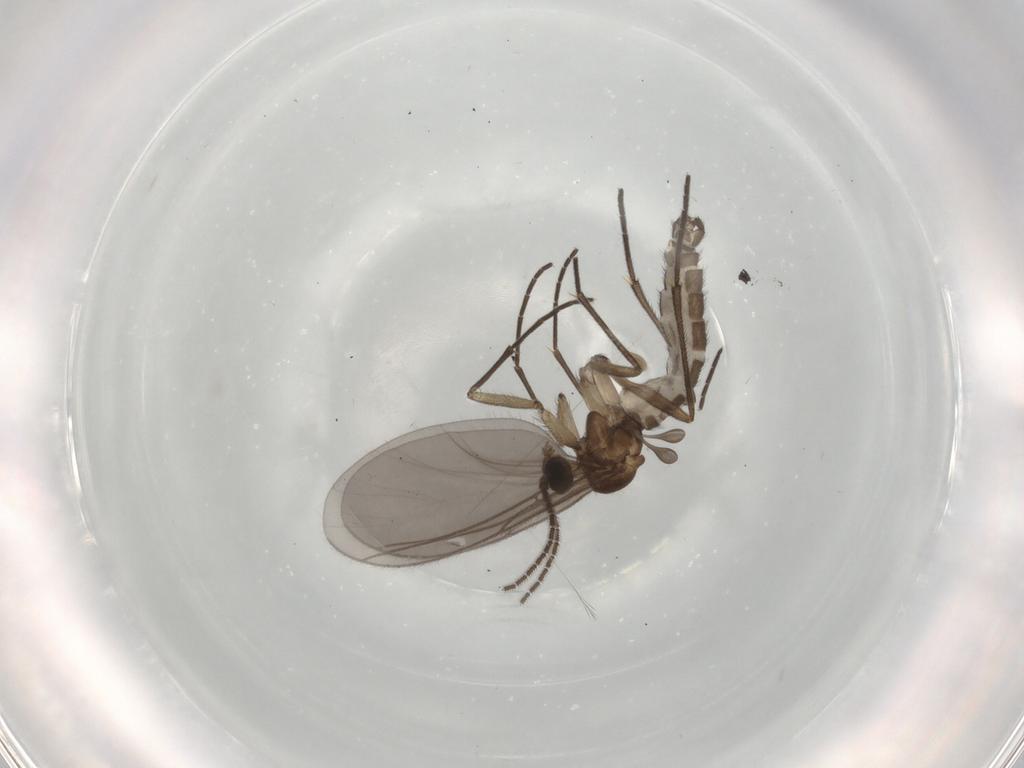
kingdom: Animalia
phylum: Arthropoda
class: Insecta
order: Diptera
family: Sciaridae
